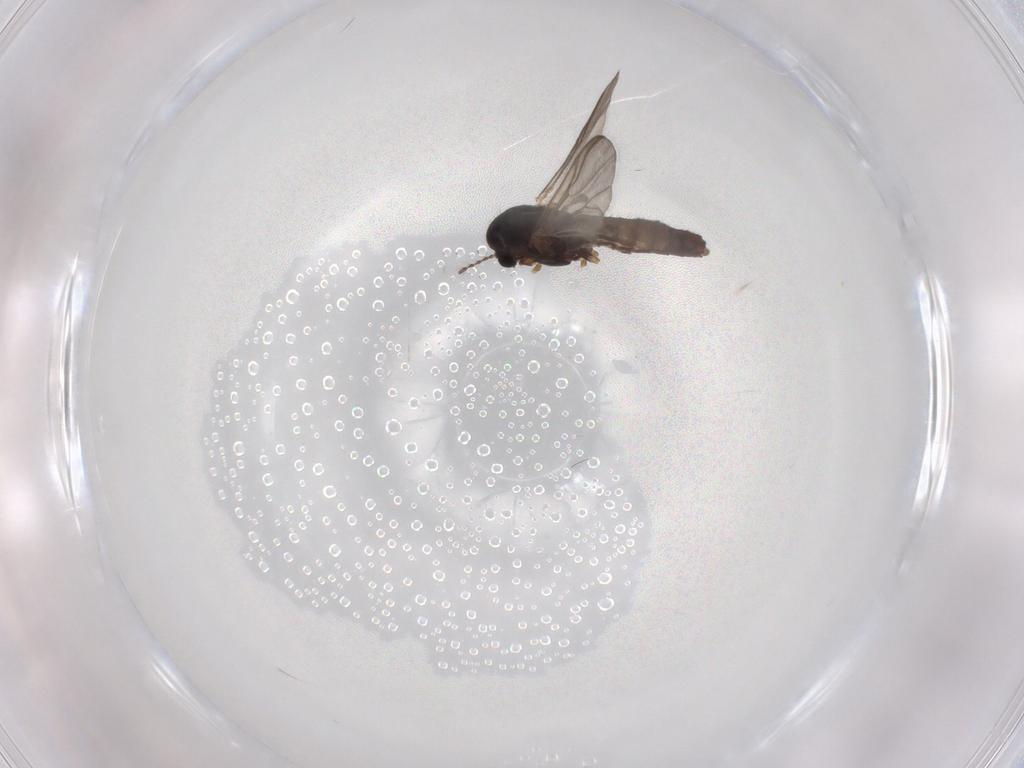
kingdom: Animalia
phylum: Arthropoda
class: Insecta
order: Diptera
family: Chironomidae
